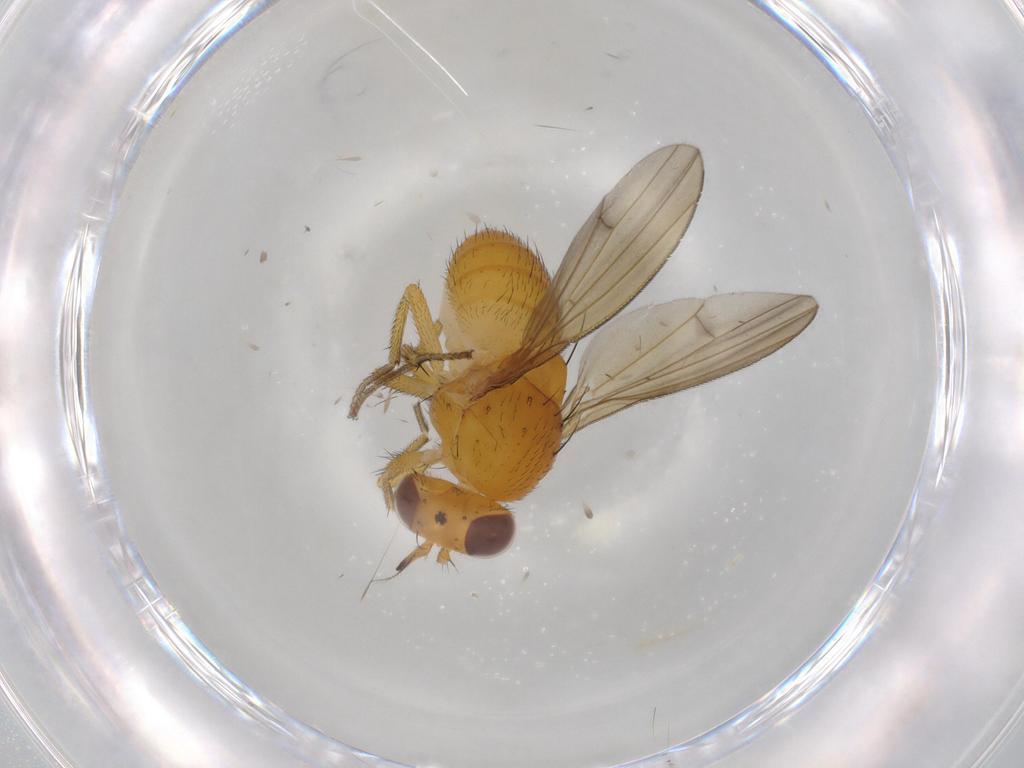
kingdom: Animalia
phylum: Arthropoda
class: Insecta
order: Diptera
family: Lauxaniidae
